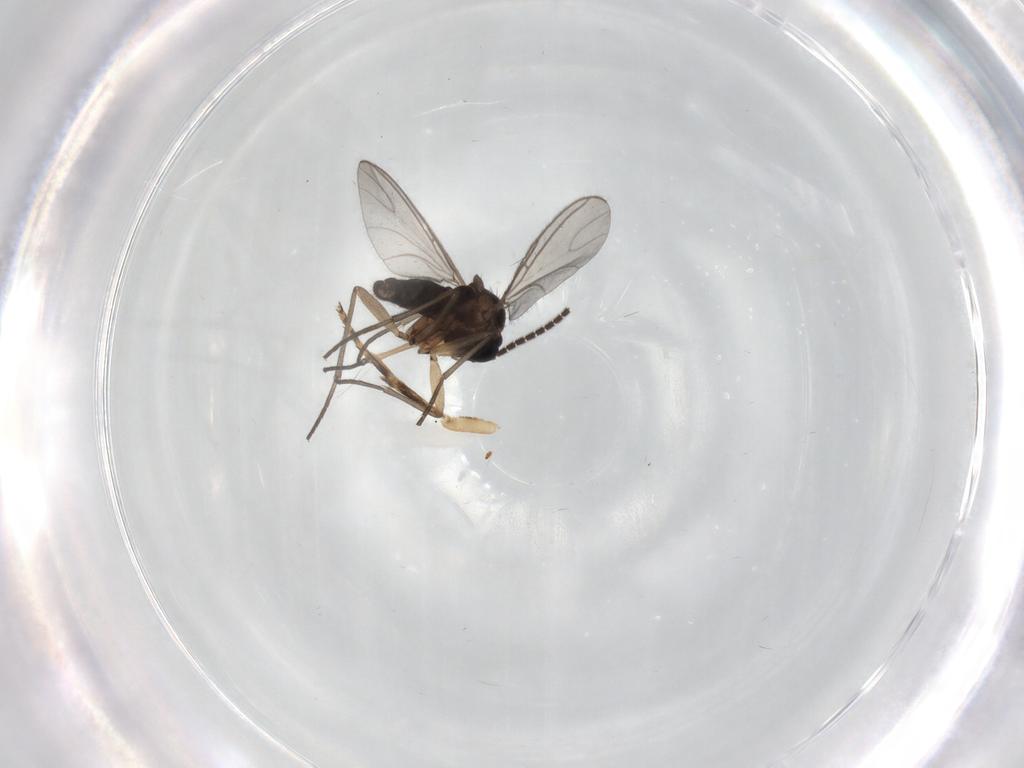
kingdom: Animalia
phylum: Arthropoda
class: Insecta
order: Diptera
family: Sciaridae
